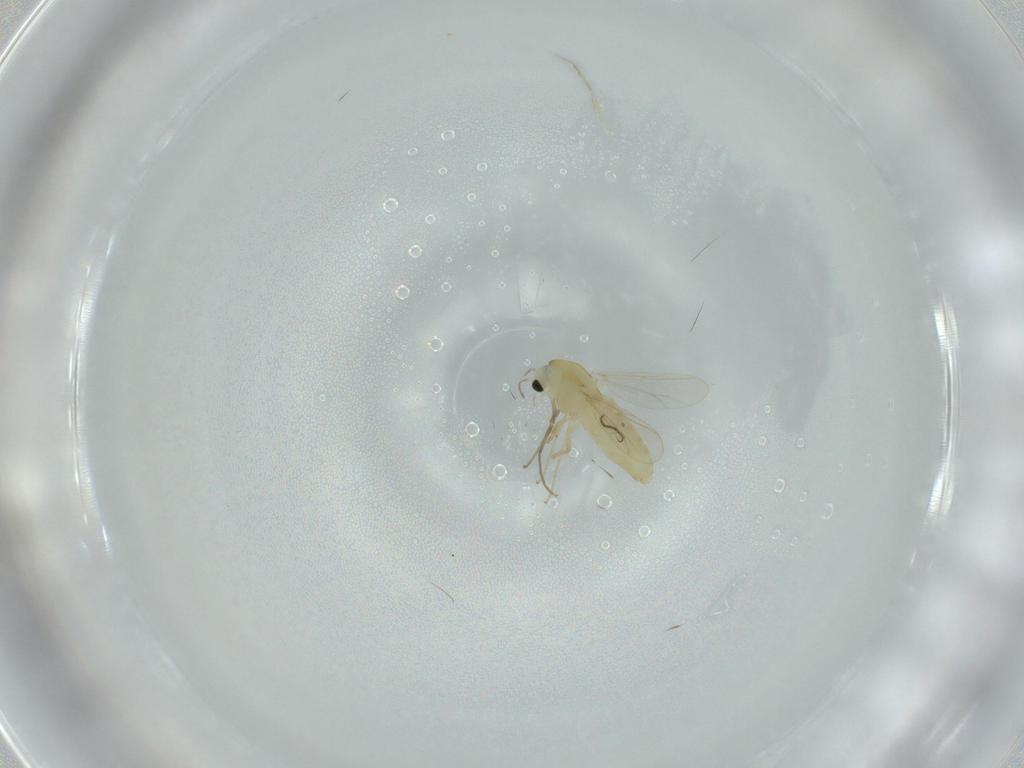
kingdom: Animalia
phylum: Arthropoda
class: Insecta
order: Diptera
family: Chironomidae
